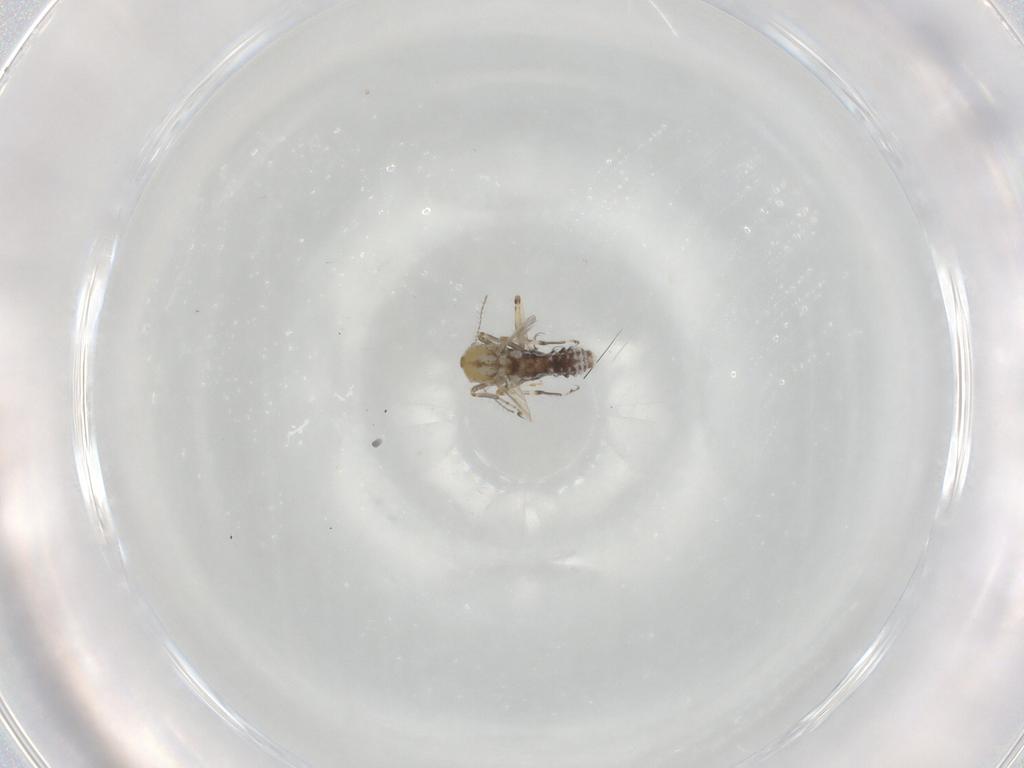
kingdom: Animalia
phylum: Arthropoda
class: Insecta
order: Diptera
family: Ceratopogonidae
